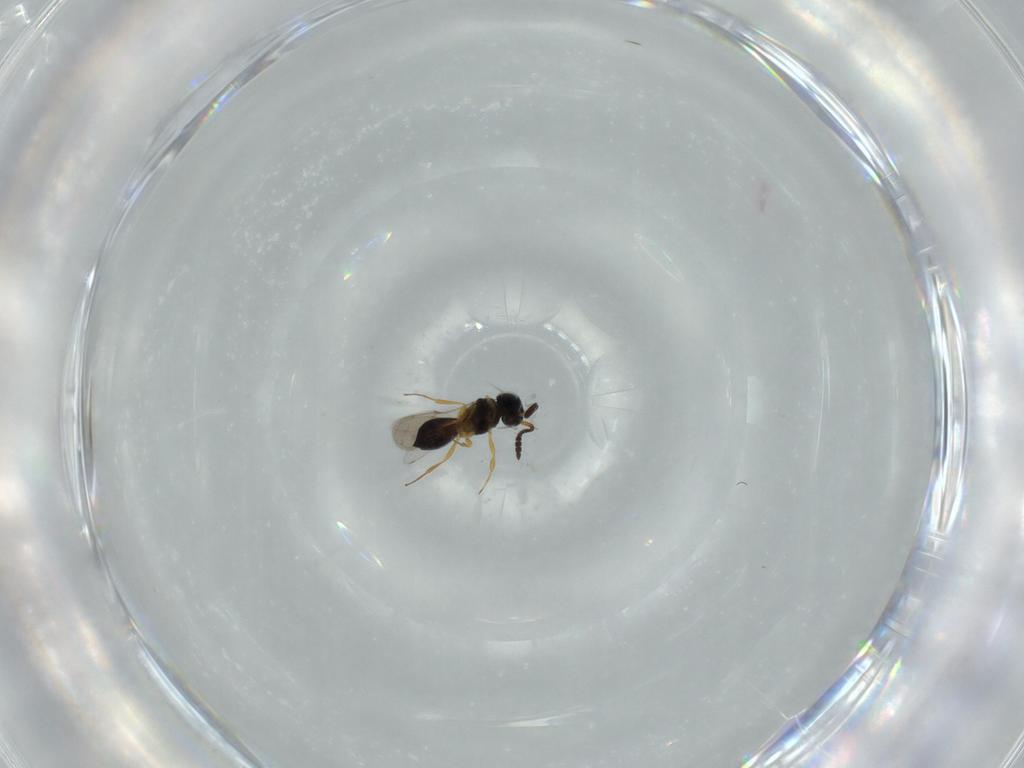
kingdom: Animalia
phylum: Arthropoda
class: Insecta
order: Hymenoptera
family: Scelionidae
